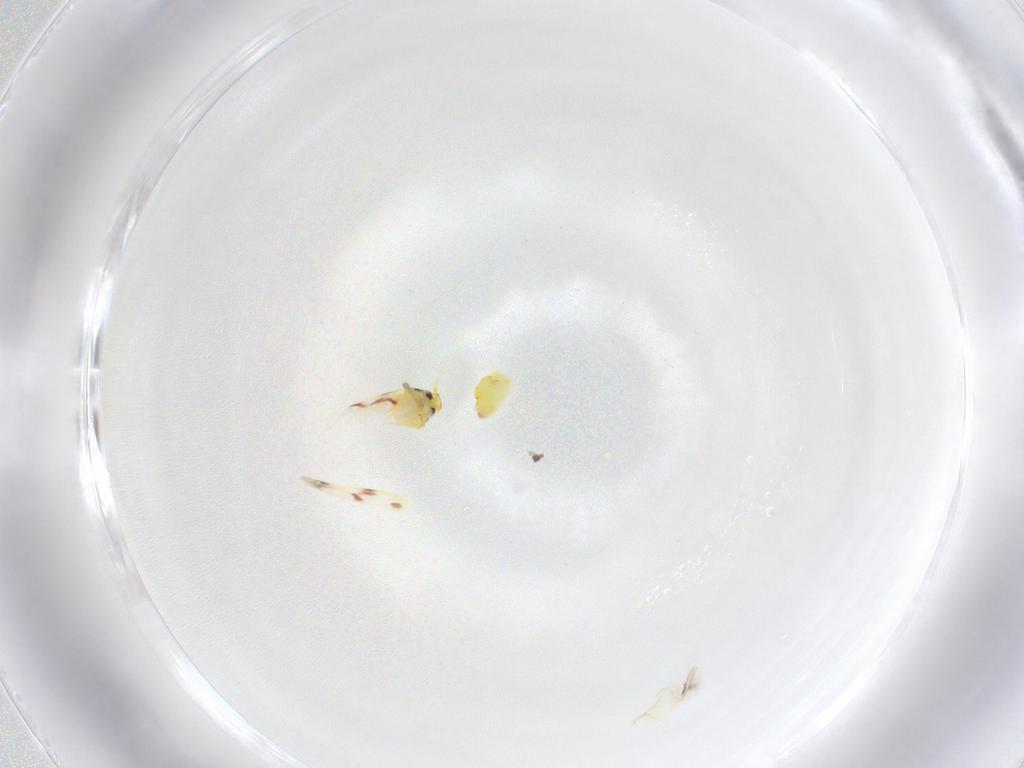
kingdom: Animalia
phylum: Arthropoda
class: Insecta
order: Hemiptera
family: Aleyrodidae
